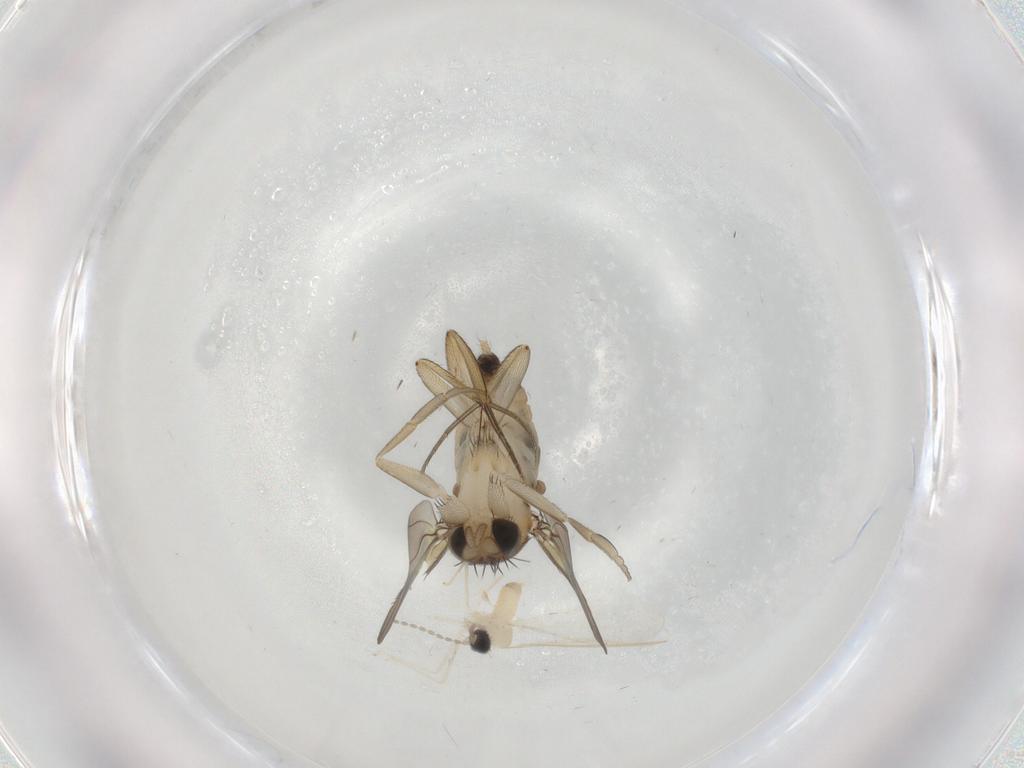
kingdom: Animalia
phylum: Arthropoda
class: Insecta
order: Diptera
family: Phoridae
